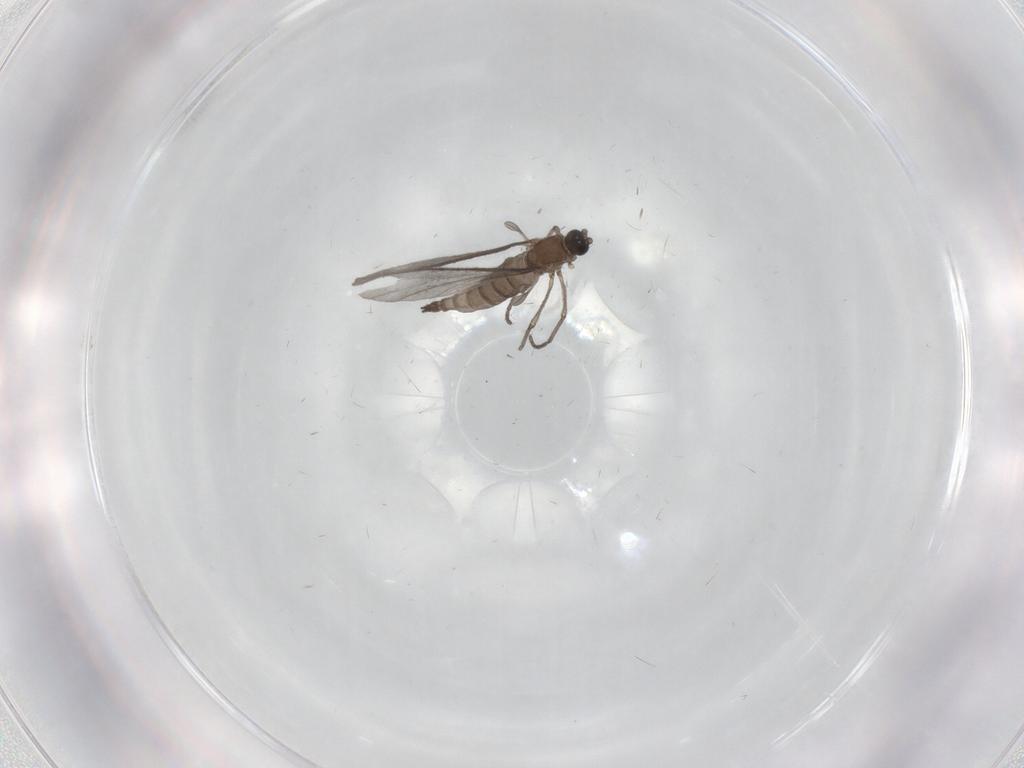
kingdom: Animalia
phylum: Arthropoda
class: Insecta
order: Diptera
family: Sciaridae
